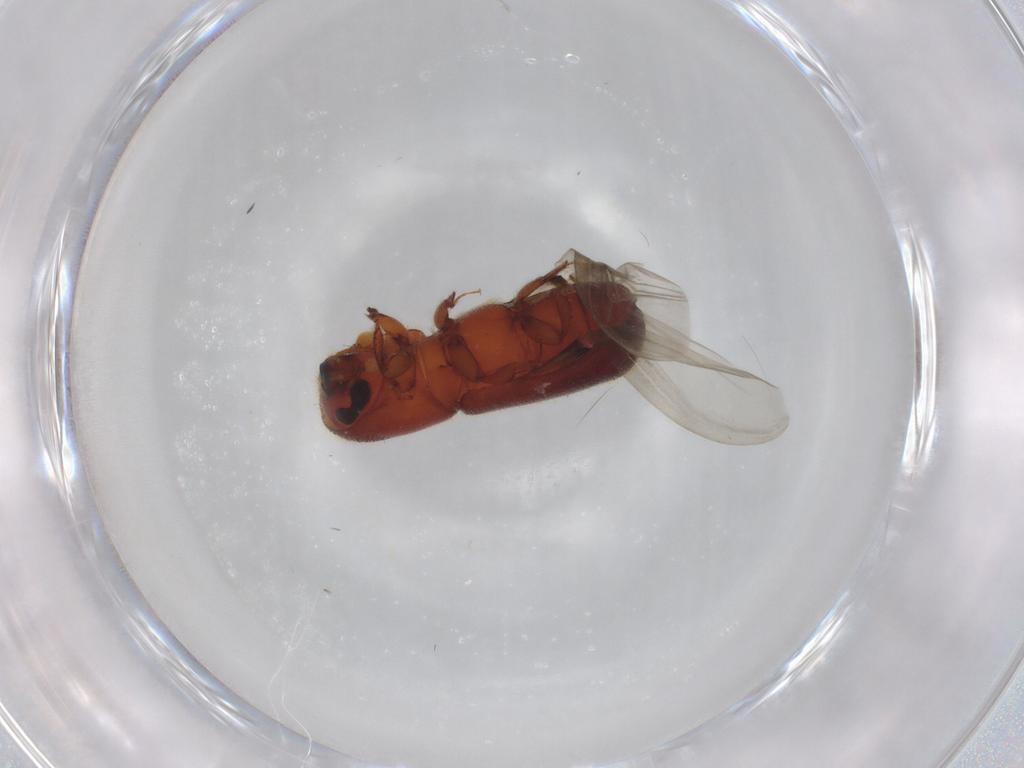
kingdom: Animalia
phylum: Arthropoda
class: Insecta
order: Coleoptera
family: Curculionidae
